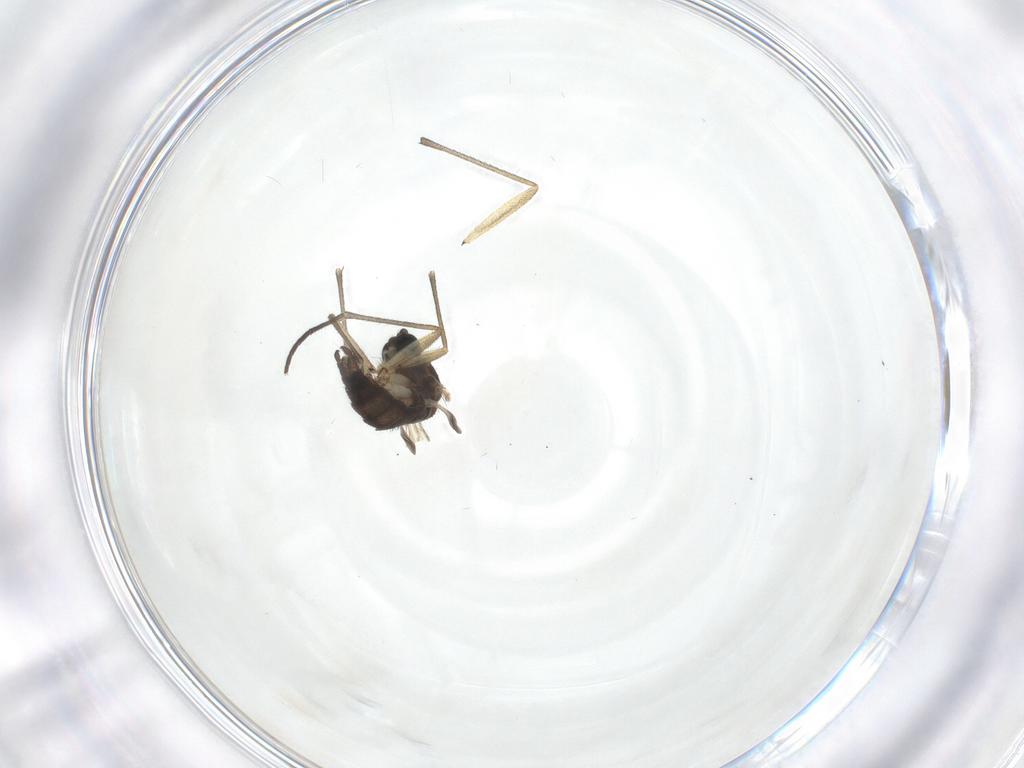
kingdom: Animalia
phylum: Arthropoda
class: Insecta
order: Diptera
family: Sciaridae
